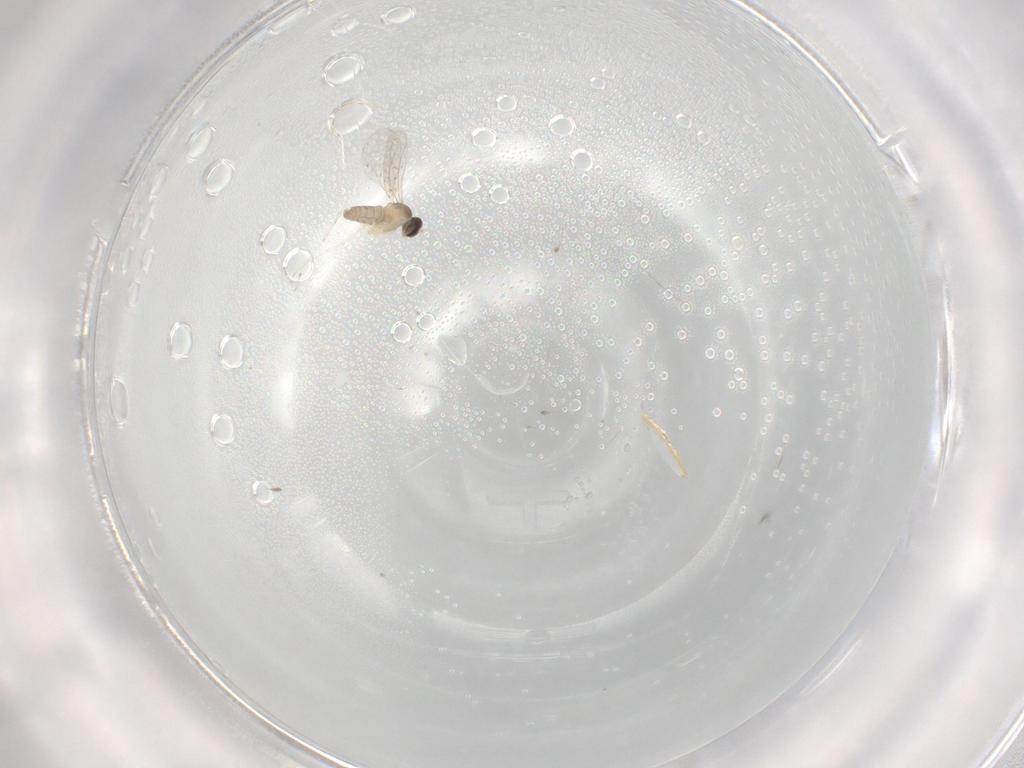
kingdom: Animalia
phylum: Arthropoda
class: Insecta
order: Diptera
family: Cecidomyiidae
